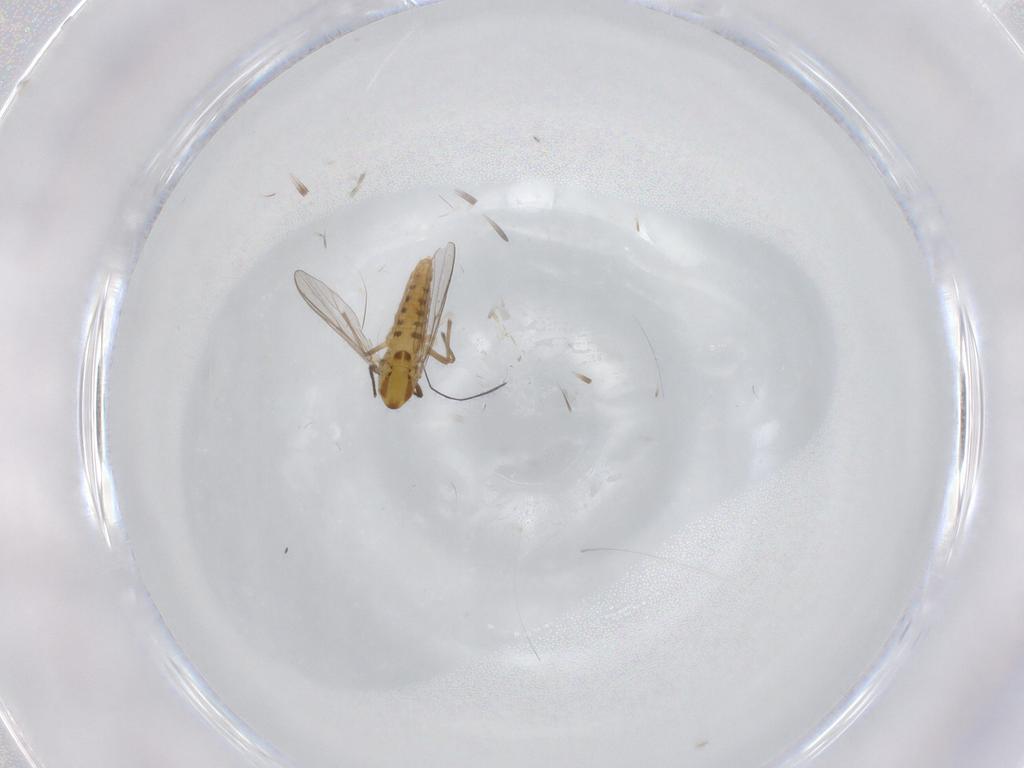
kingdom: Animalia
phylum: Arthropoda
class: Insecta
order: Diptera
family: Chironomidae
